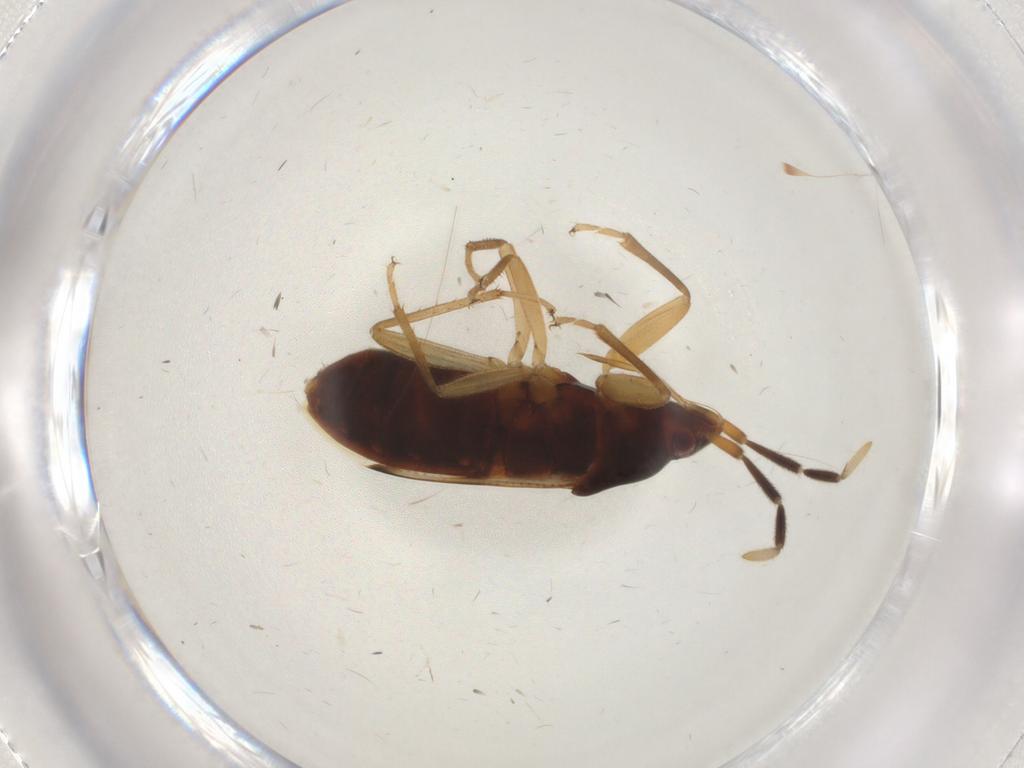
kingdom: Animalia
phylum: Arthropoda
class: Insecta
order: Hemiptera
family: Rhyparochromidae
